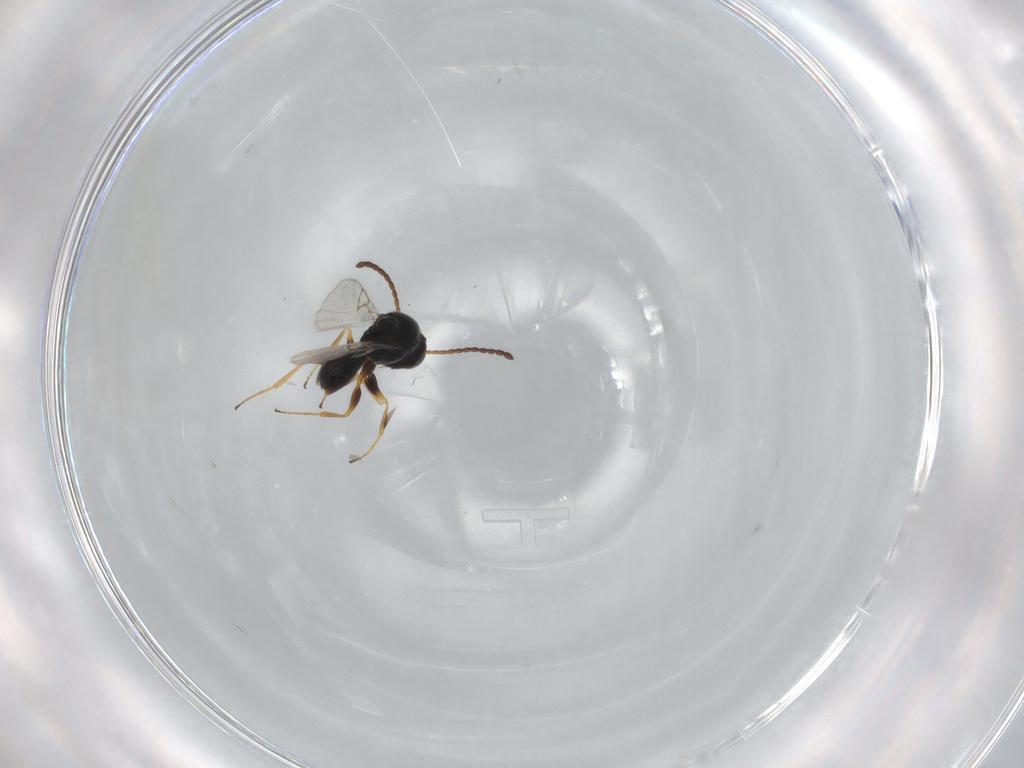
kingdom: Animalia
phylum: Arthropoda
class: Insecta
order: Hymenoptera
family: Figitidae
